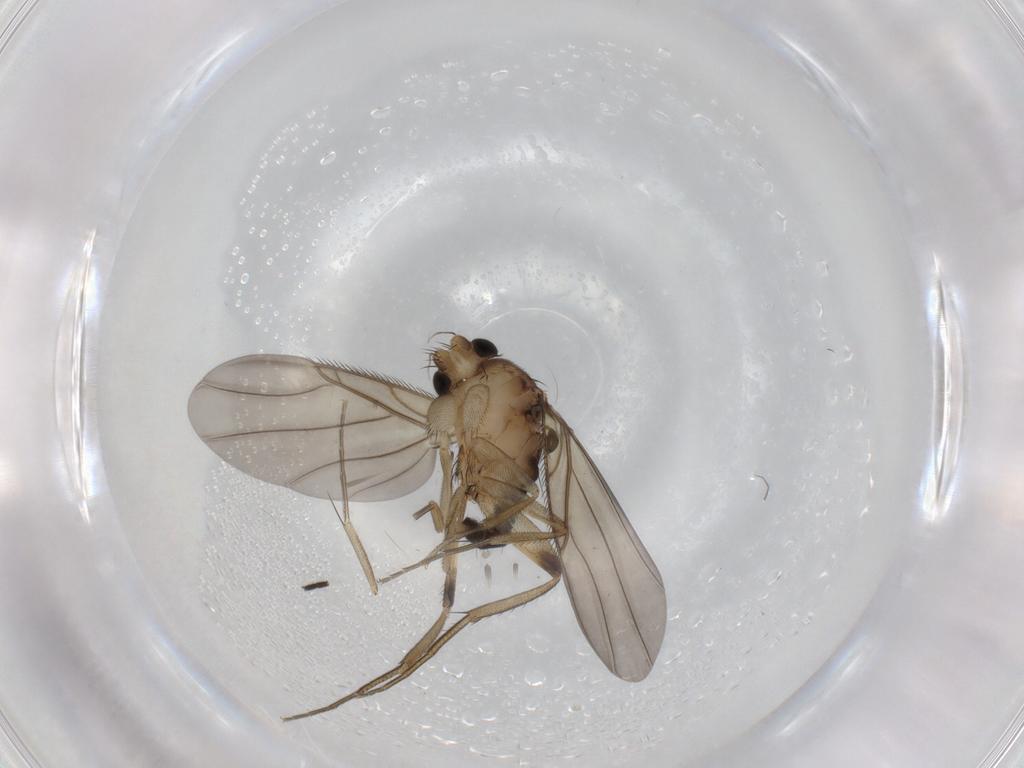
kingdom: Animalia
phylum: Arthropoda
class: Insecta
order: Diptera
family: Phoridae
